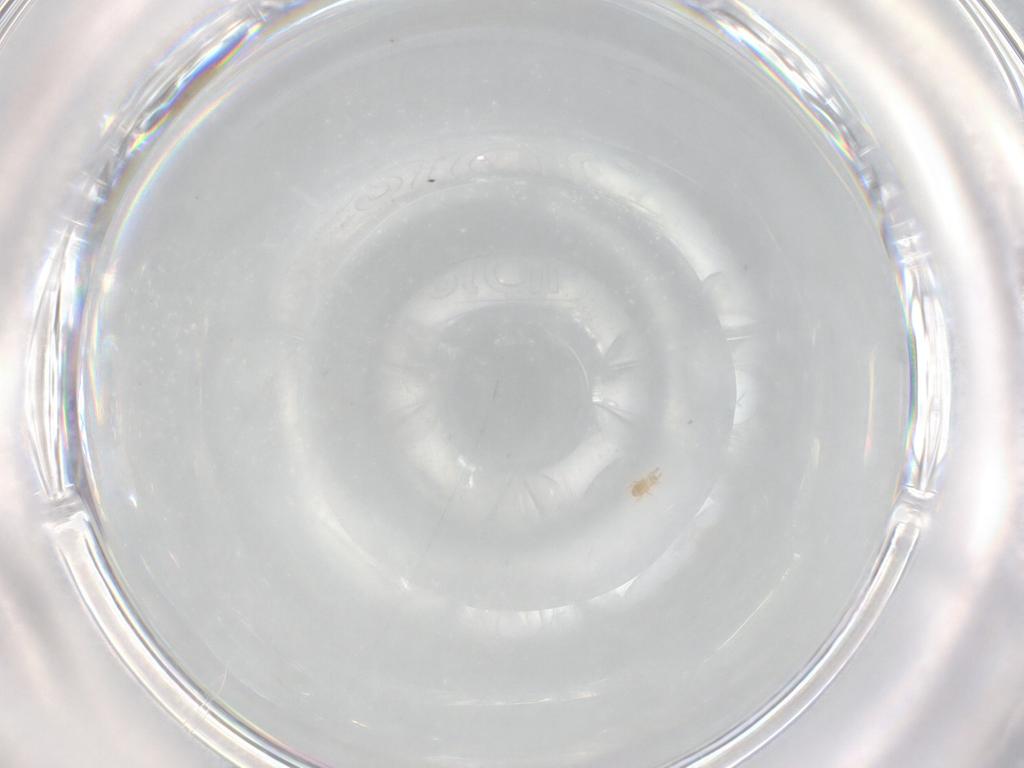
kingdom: Animalia
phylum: Arthropoda
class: Arachnida
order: Trombidiformes
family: Pygmephoridae
